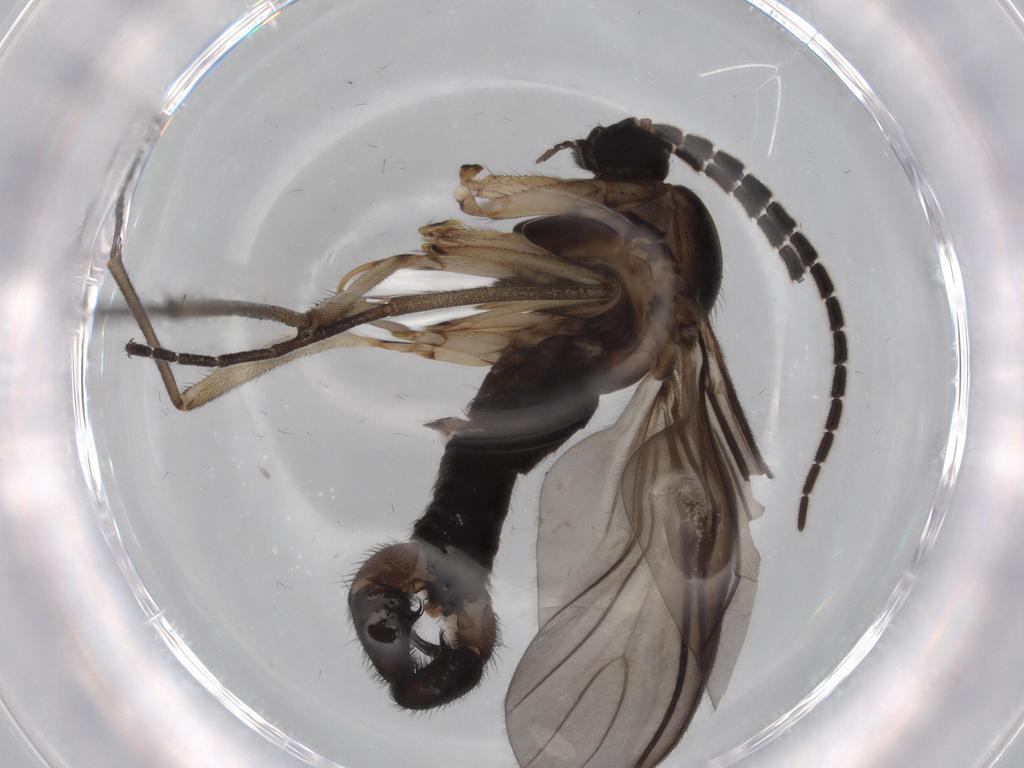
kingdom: Animalia
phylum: Arthropoda
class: Insecta
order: Diptera
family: Sciaridae
